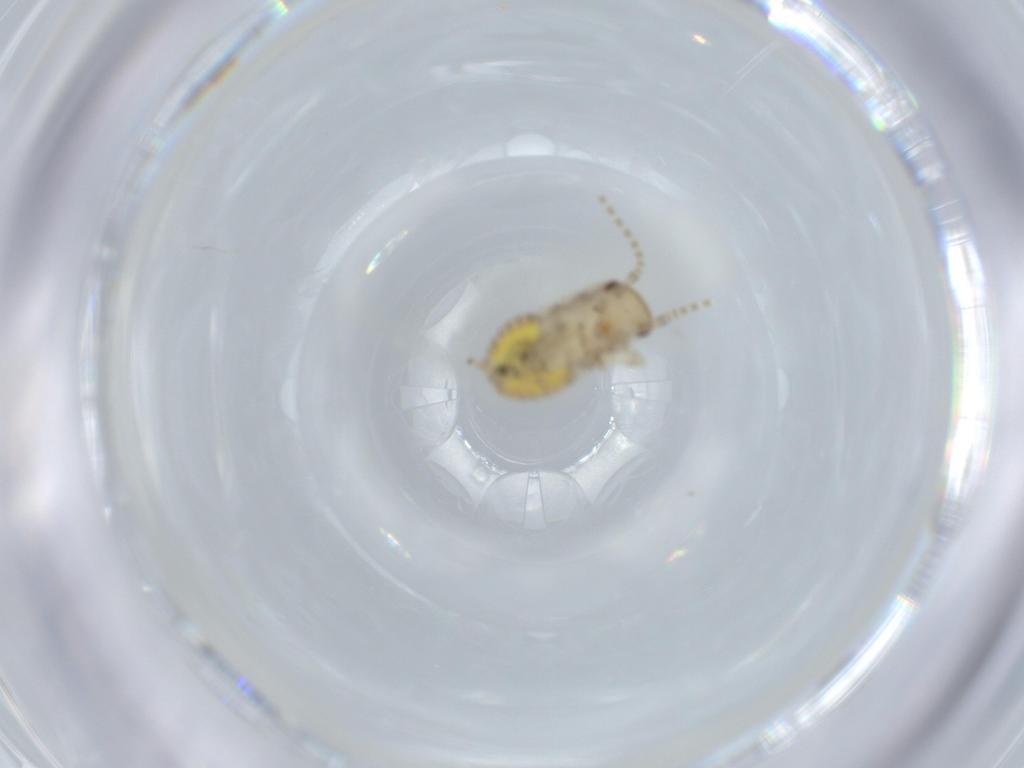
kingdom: Animalia
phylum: Arthropoda
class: Insecta
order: Blattodea
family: Ectobiidae
